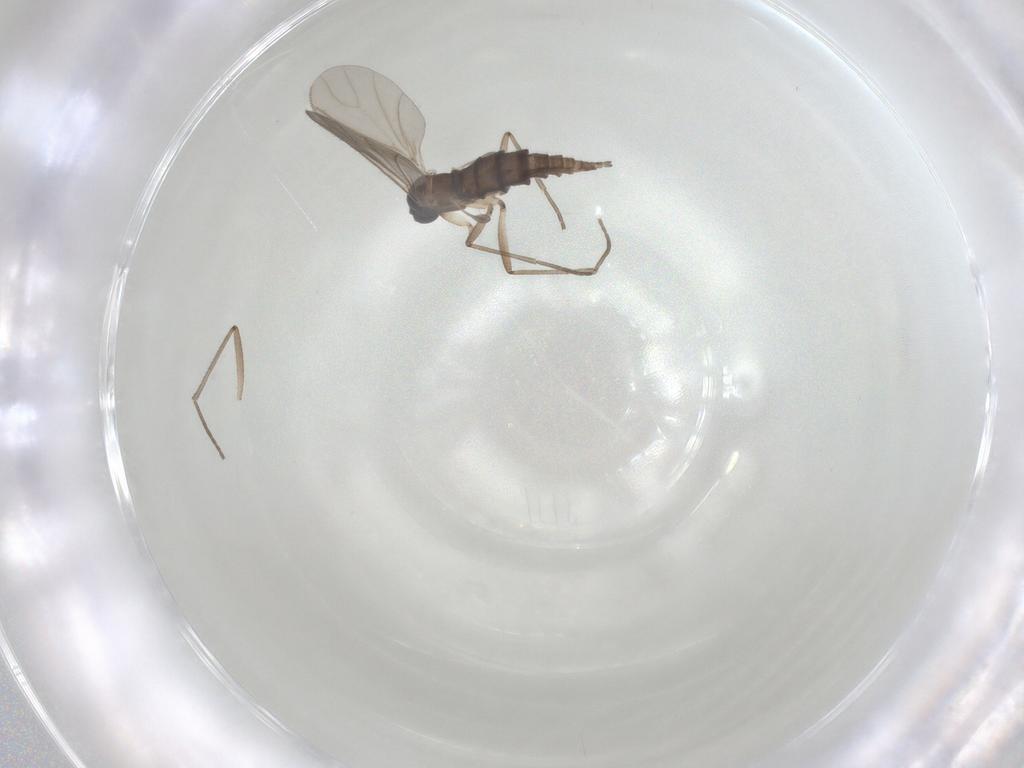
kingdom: Animalia
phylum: Arthropoda
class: Insecta
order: Diptera
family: Sciaridae
